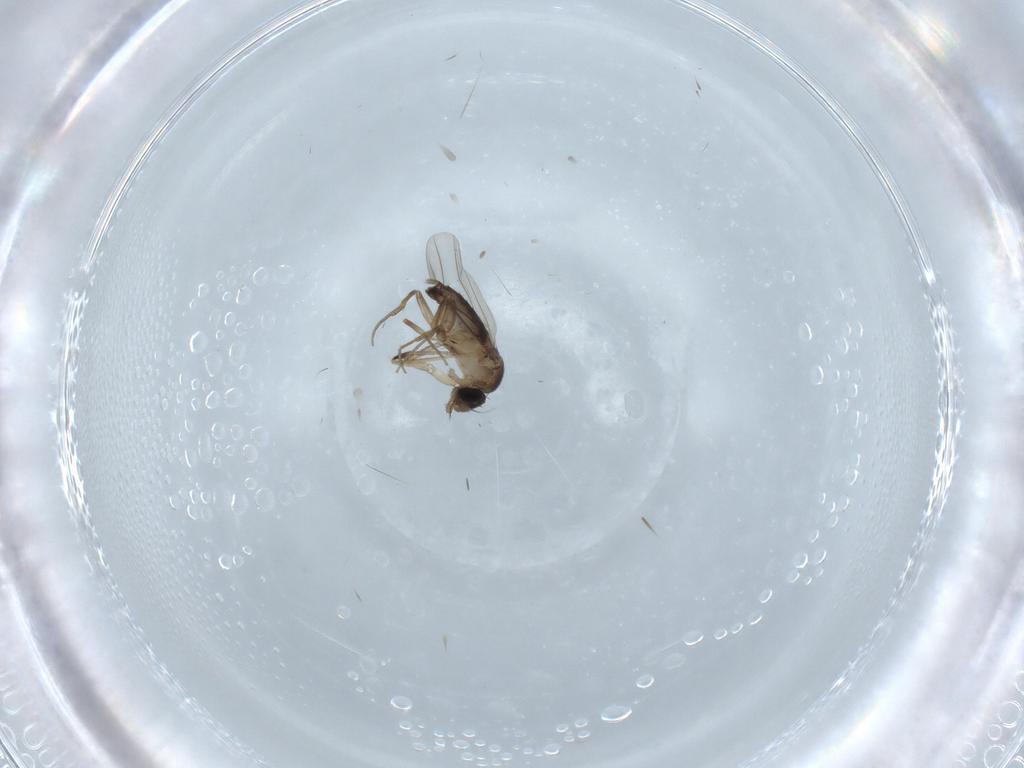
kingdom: Animalia
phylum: Arthropoda
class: Insecta
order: Diptera
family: Phoridae
